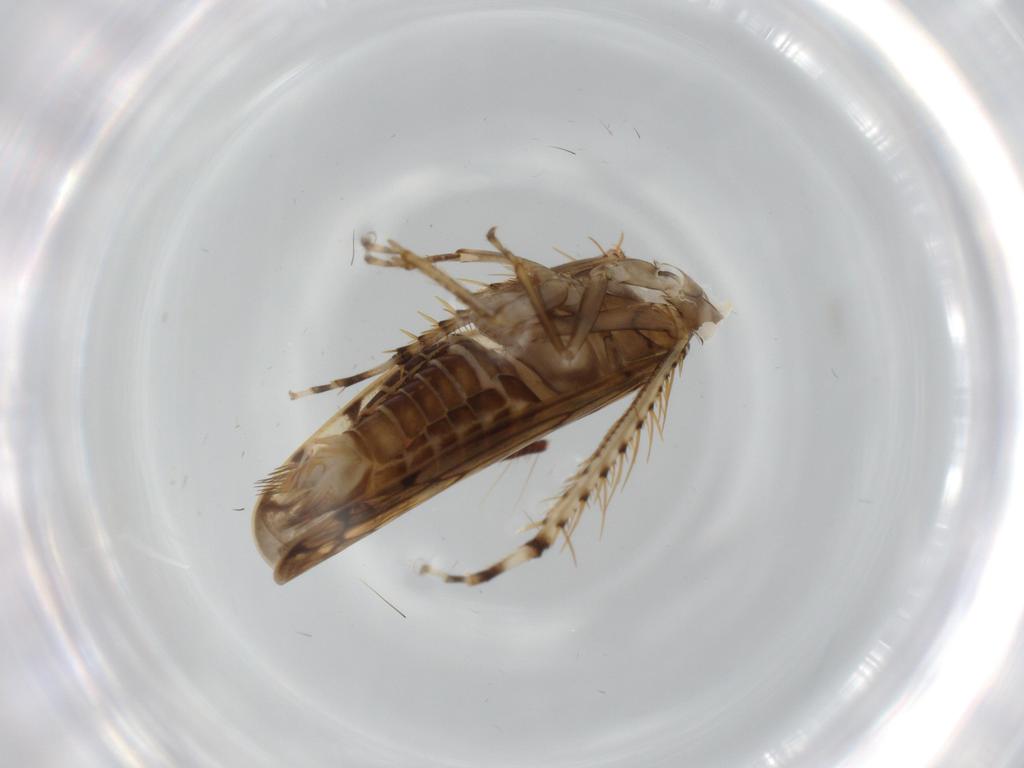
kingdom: Animalia
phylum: Arthropoda
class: Insecta
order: Hemiptera
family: Cicadellidae
